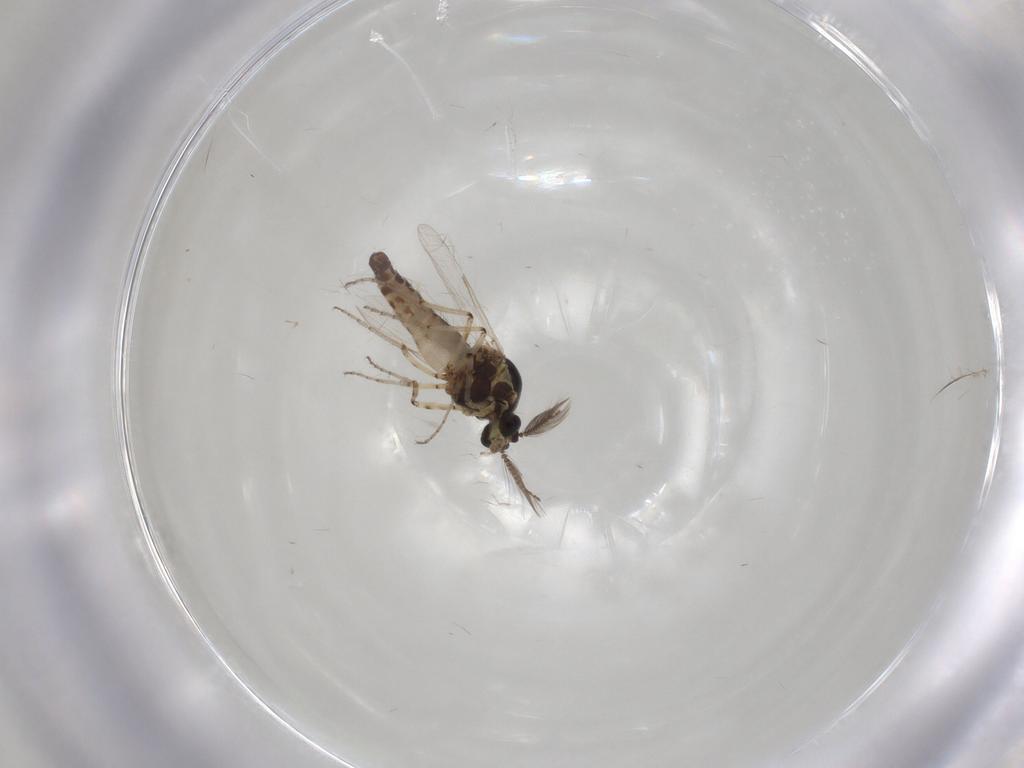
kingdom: Animalia
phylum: Arthropoda
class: Insecta
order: Diptera
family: Ceratopogonidae
